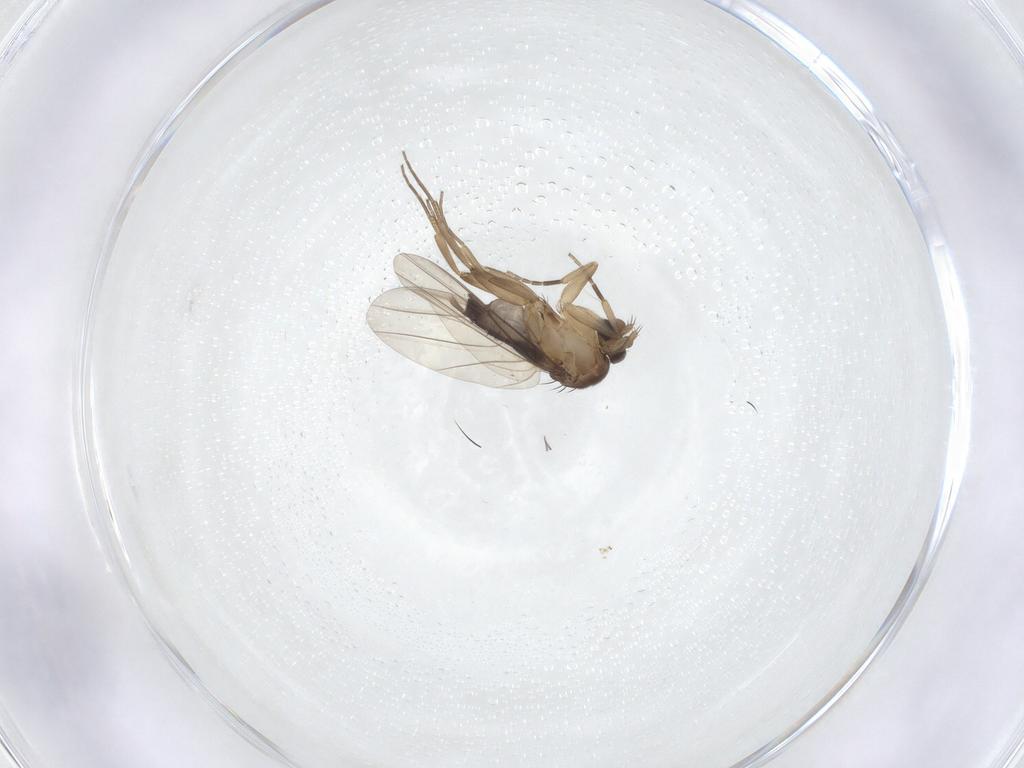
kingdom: Animalia
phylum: Arthropoda
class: Insecta
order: Diptera
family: Phoridae
